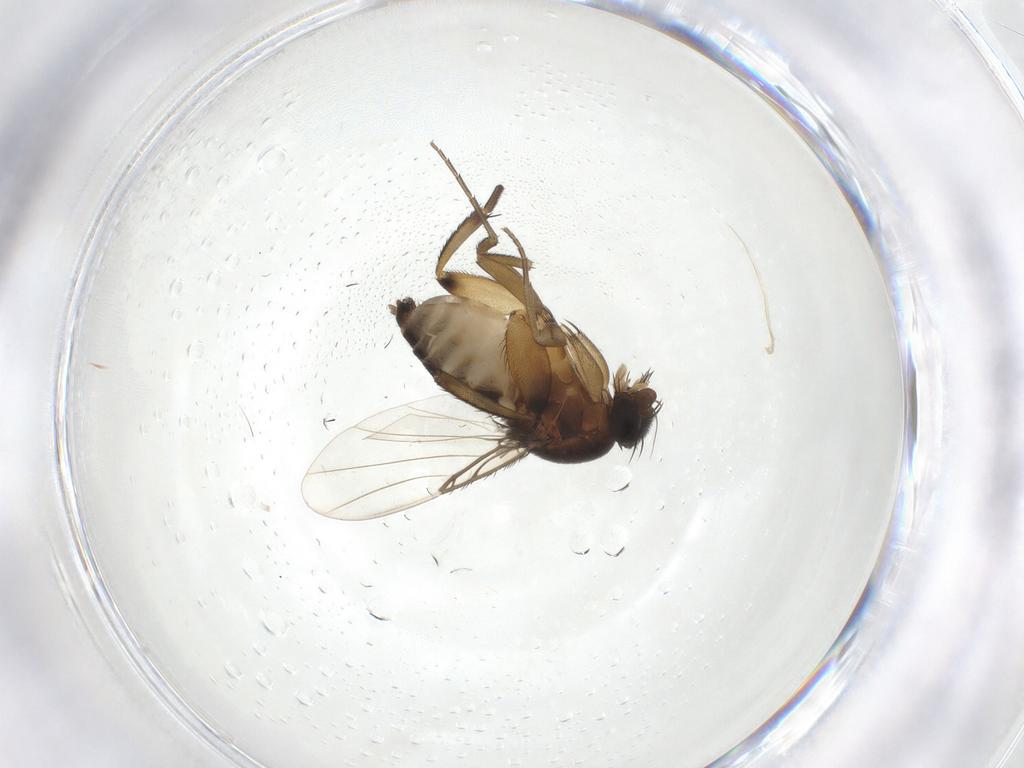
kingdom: Animalia
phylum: Arthropoda
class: Insecta
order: Diptera
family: Phoridae
